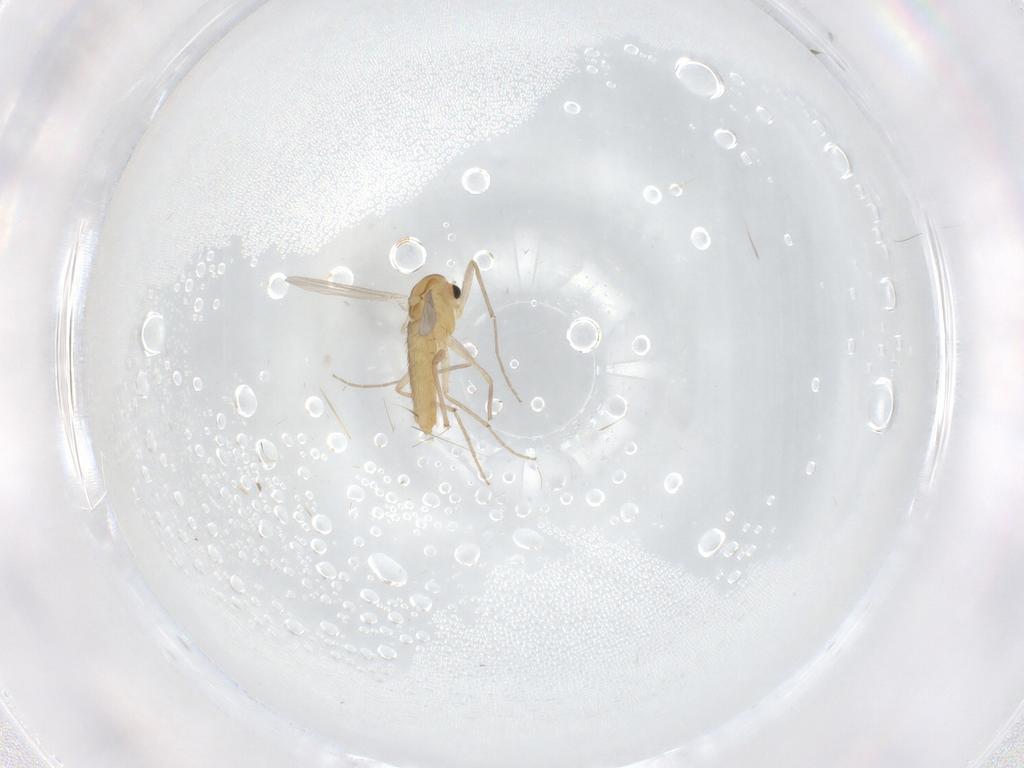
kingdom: Animalia
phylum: Arthropoda
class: Insecta
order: Diptera
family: Chironomidae
